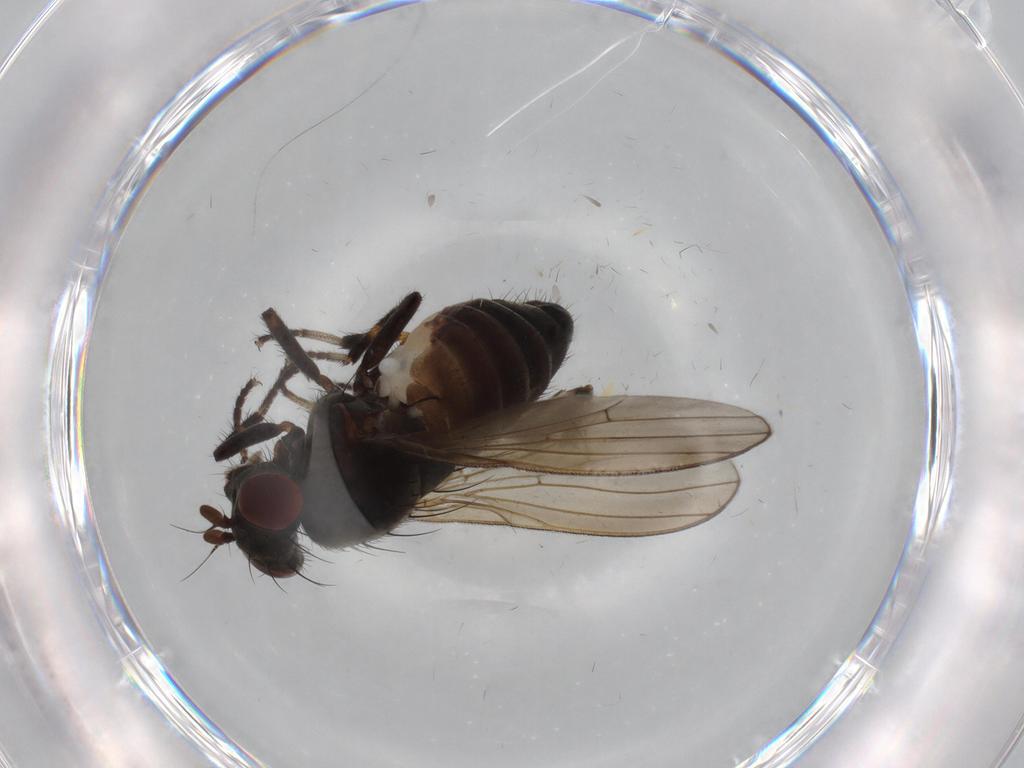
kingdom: Animalia
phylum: Arthropoda
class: Insecta
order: Diptera
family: Lauxaniidae
